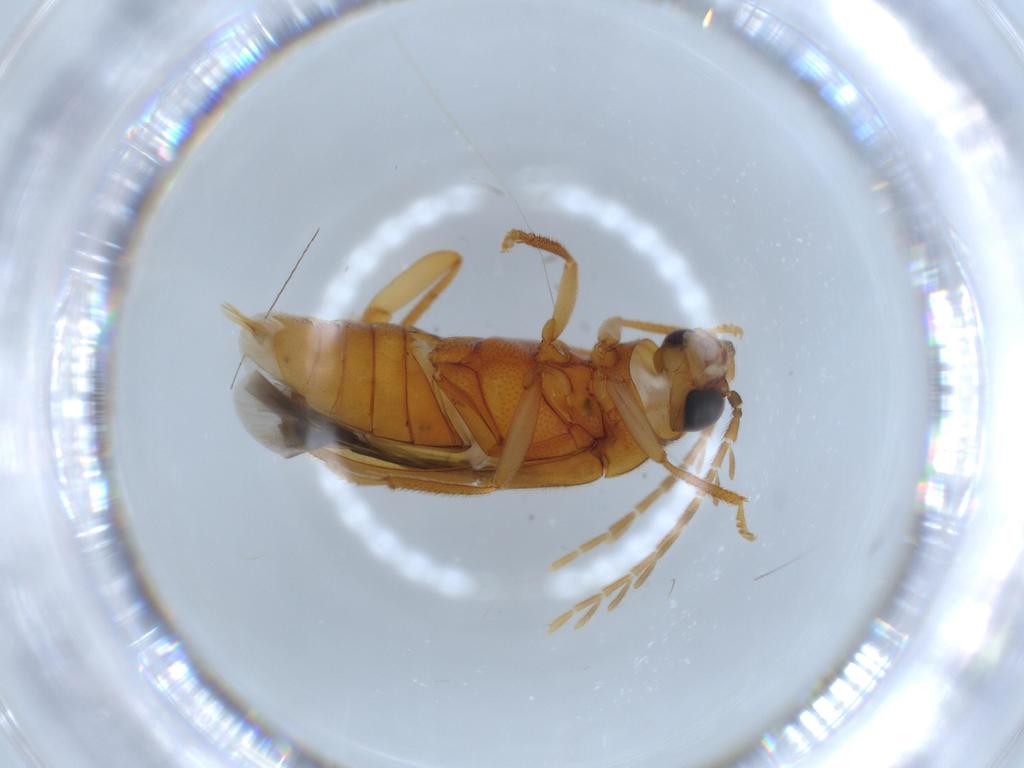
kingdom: Animalia
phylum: Arthropoda
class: Insecta
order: Coleoptera
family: Ptilodactylidae
